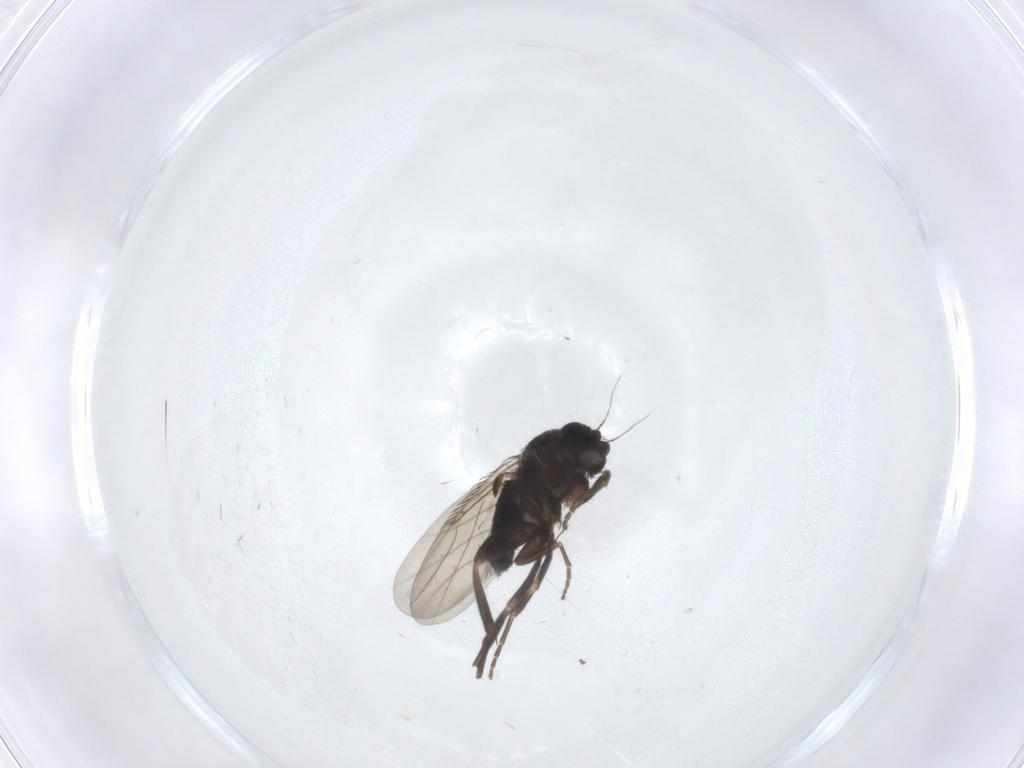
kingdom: Animalia
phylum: Arthropoda
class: Insecta
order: Diptera
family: Phoridae
